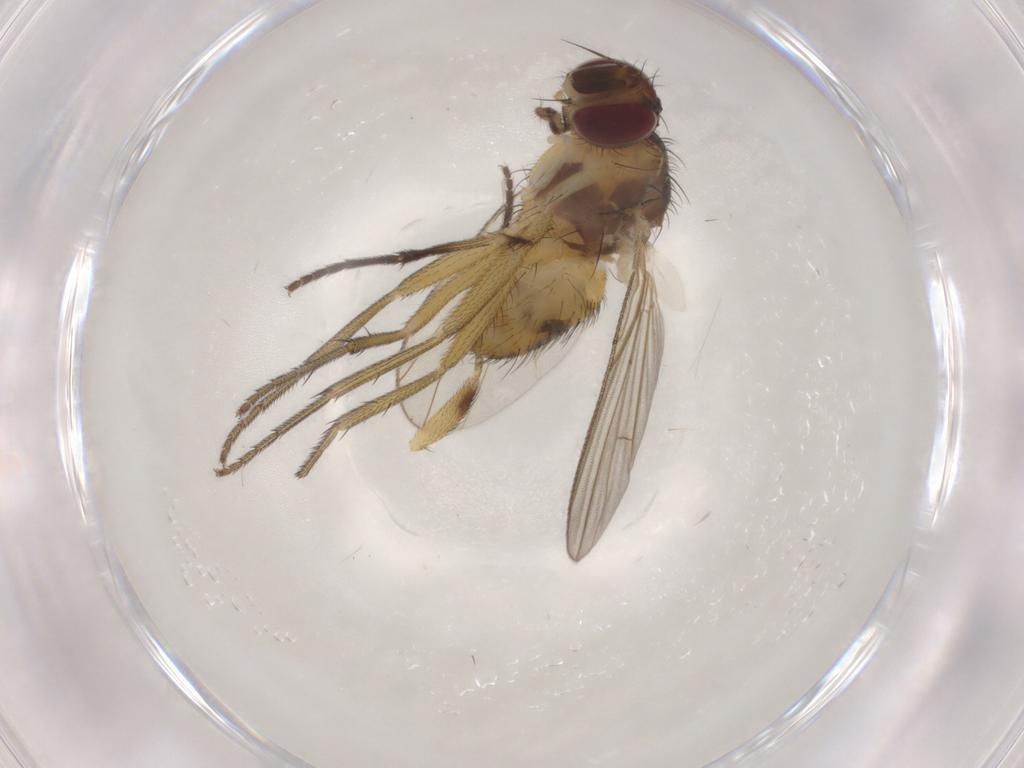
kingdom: Animalia
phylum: Arthropoda
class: Insecta
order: Diptera
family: Muscidae
